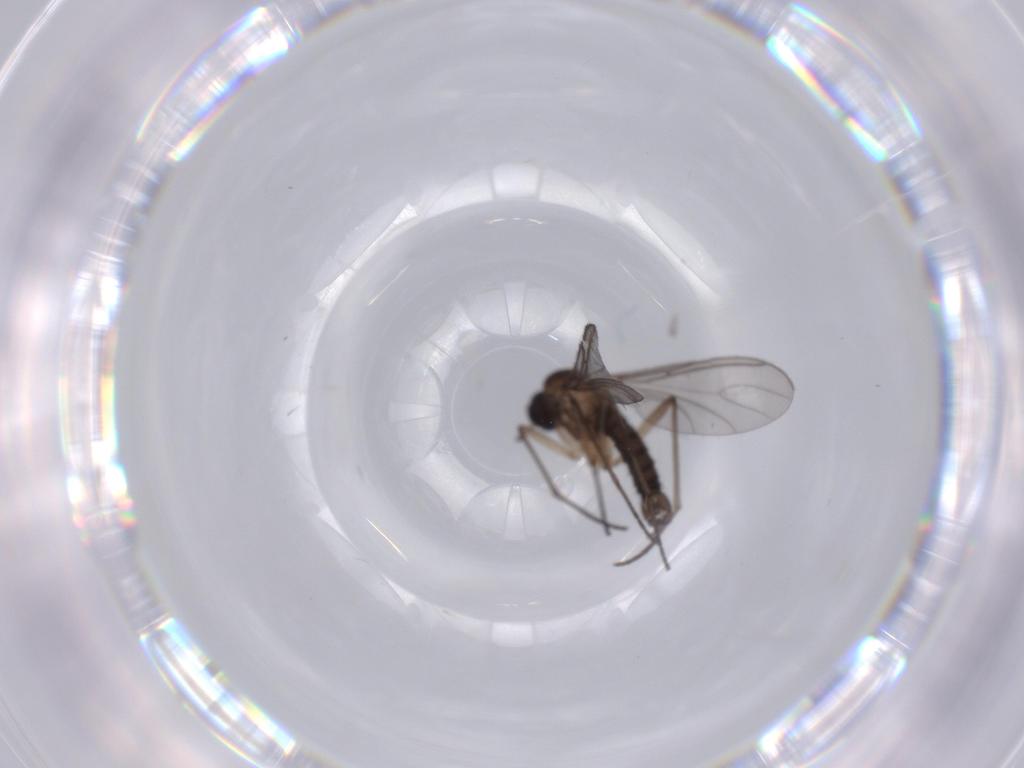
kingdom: Animalia
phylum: Arthropoda
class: Insecta
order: Diptera
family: Sciaridae
